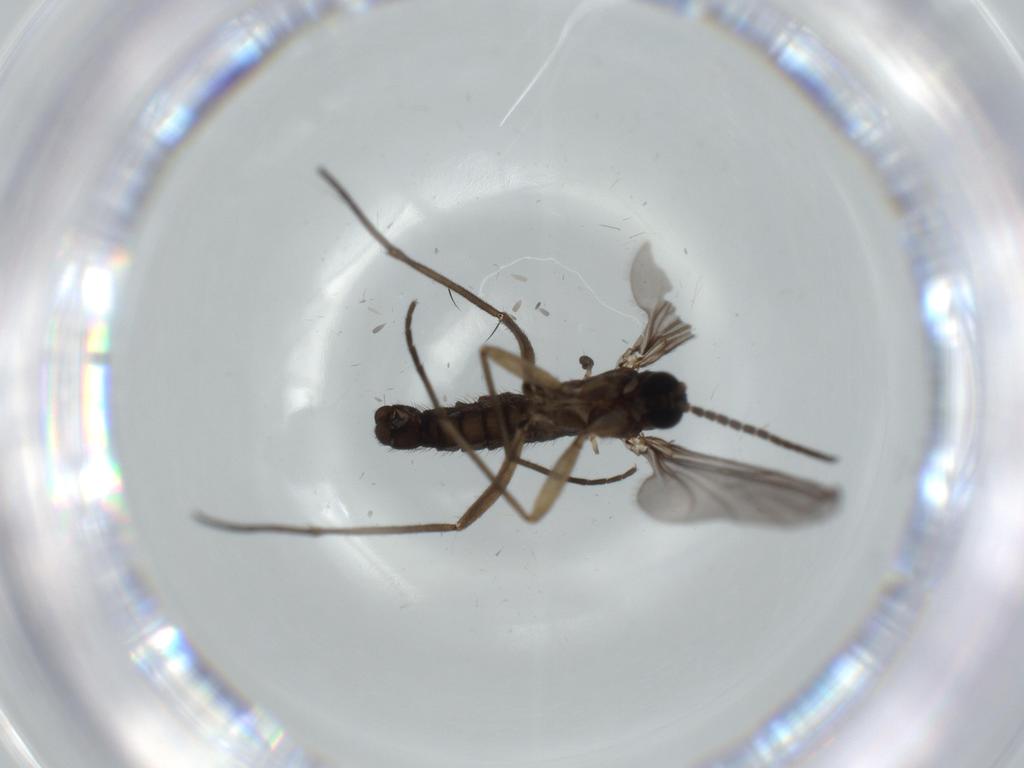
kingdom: Animalia
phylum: Arthropoda
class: Insecta
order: Diptera
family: Sciaridae
